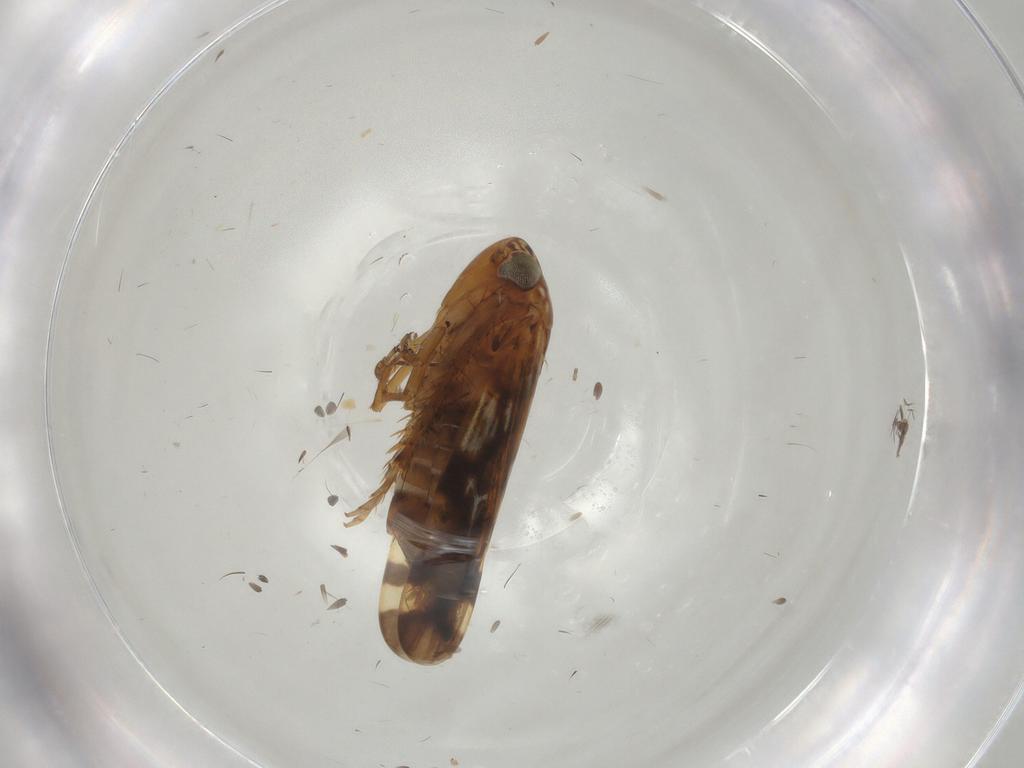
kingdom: Animalia
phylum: Arthropoda
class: Insecta
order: Hemiptera
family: Cicadellidae
